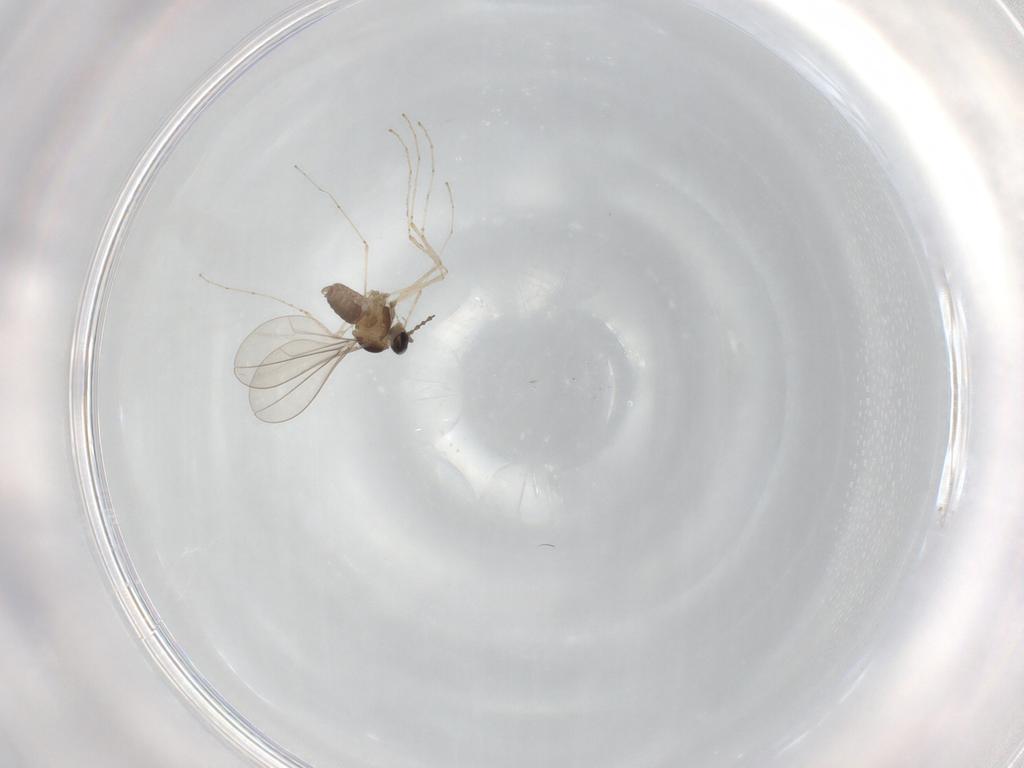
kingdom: Animalia
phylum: Arthropoda
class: Insecta
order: Diptera
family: Cecidomyiidae
